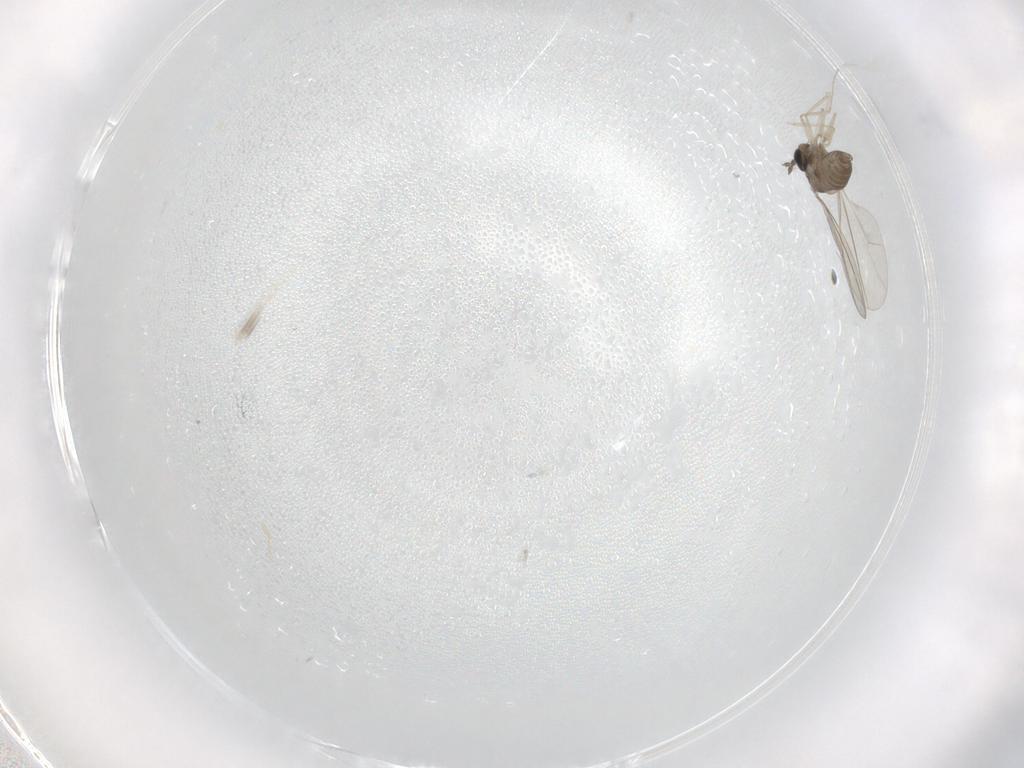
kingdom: Animalia
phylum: Arthropoda
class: Insecta
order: Diptera
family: Cecidomyiidae
